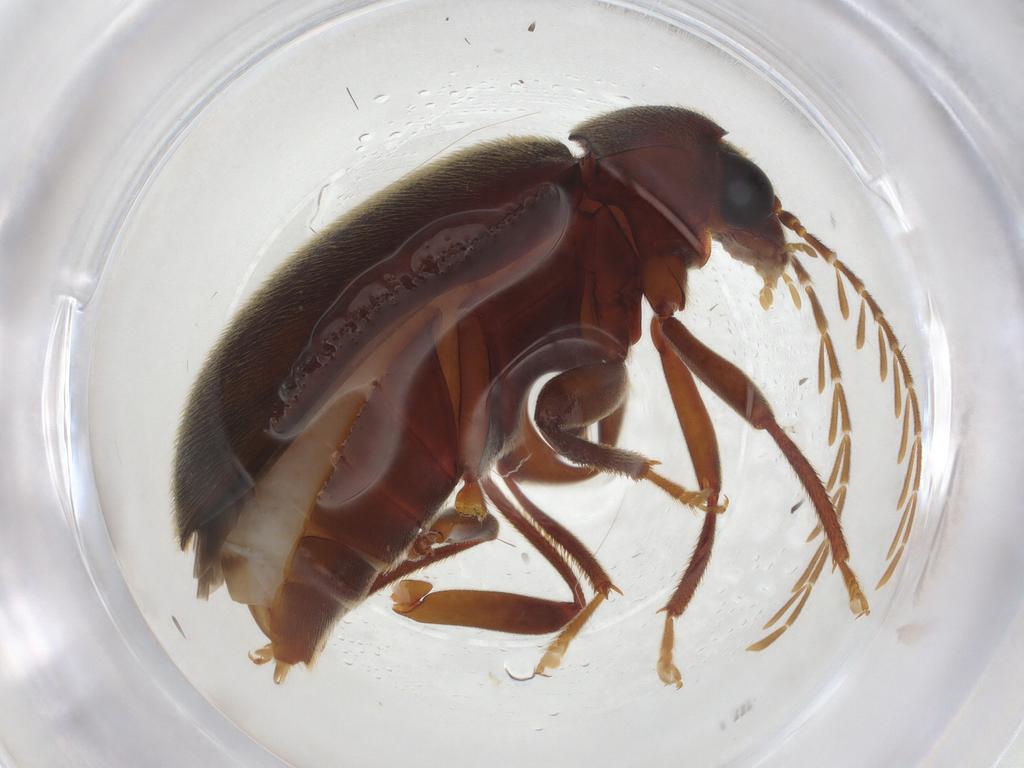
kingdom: Animalia
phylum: Arthropoda
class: Insecta
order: Coleoptera
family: Ptilodactylidae
